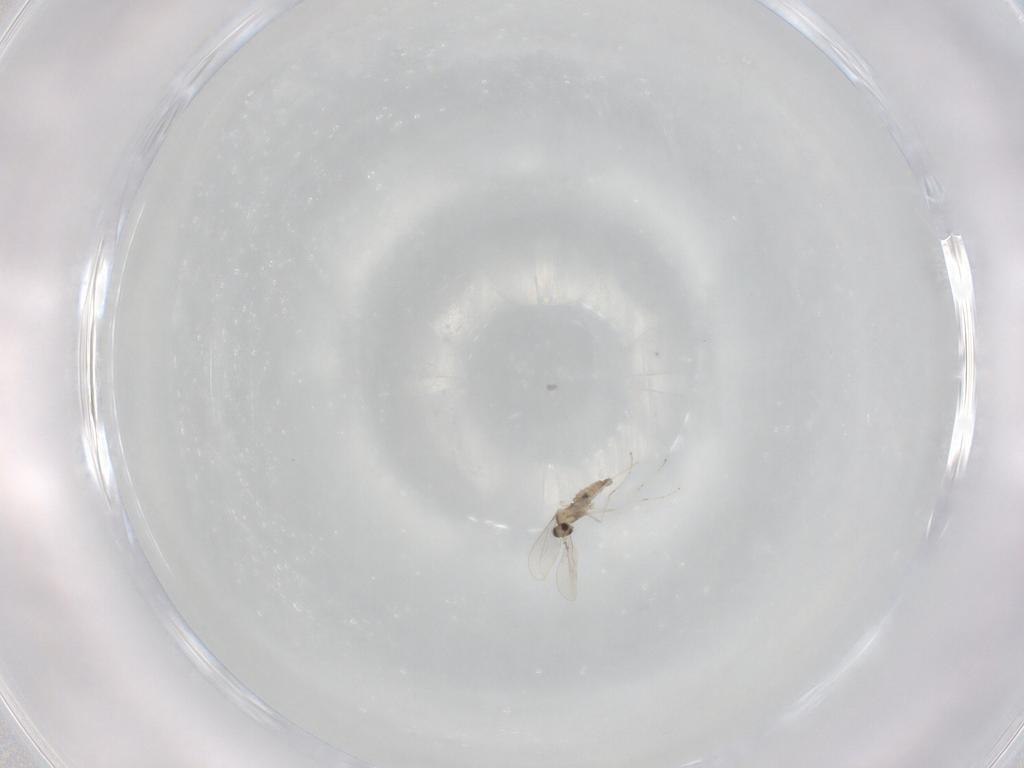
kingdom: Animalia
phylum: Arthropoda
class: Insecta
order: Diptera
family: Cecidomyiidae
